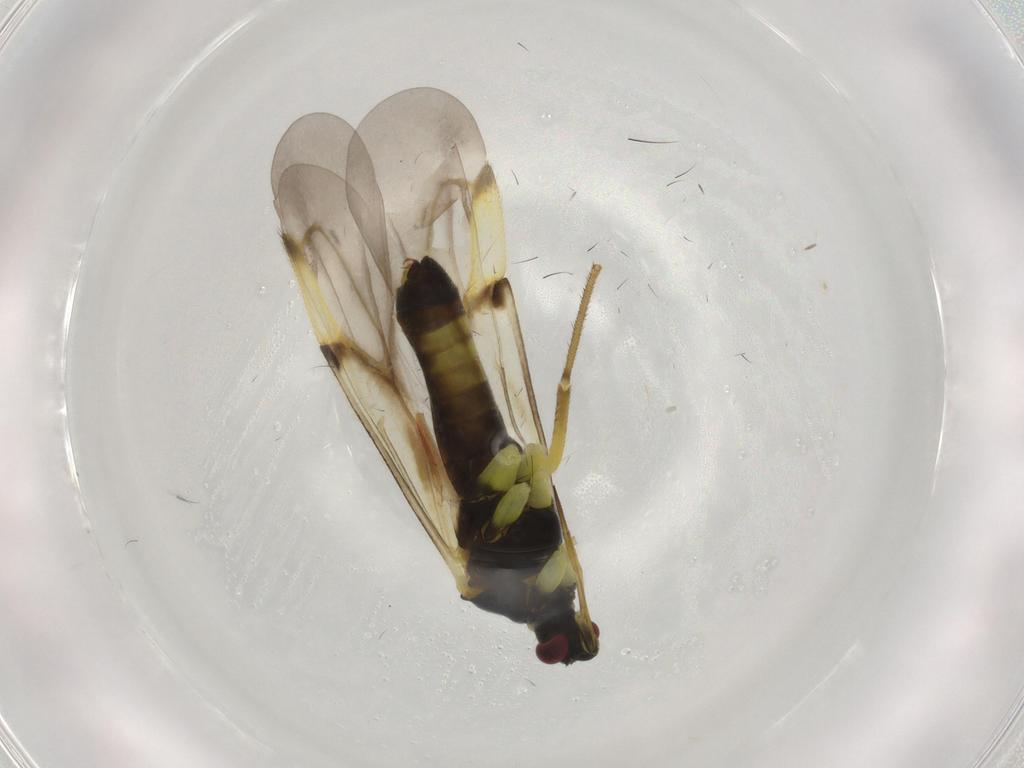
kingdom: Animalia
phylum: Arthropoda
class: Insecta
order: Hemiptera
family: Miridae
